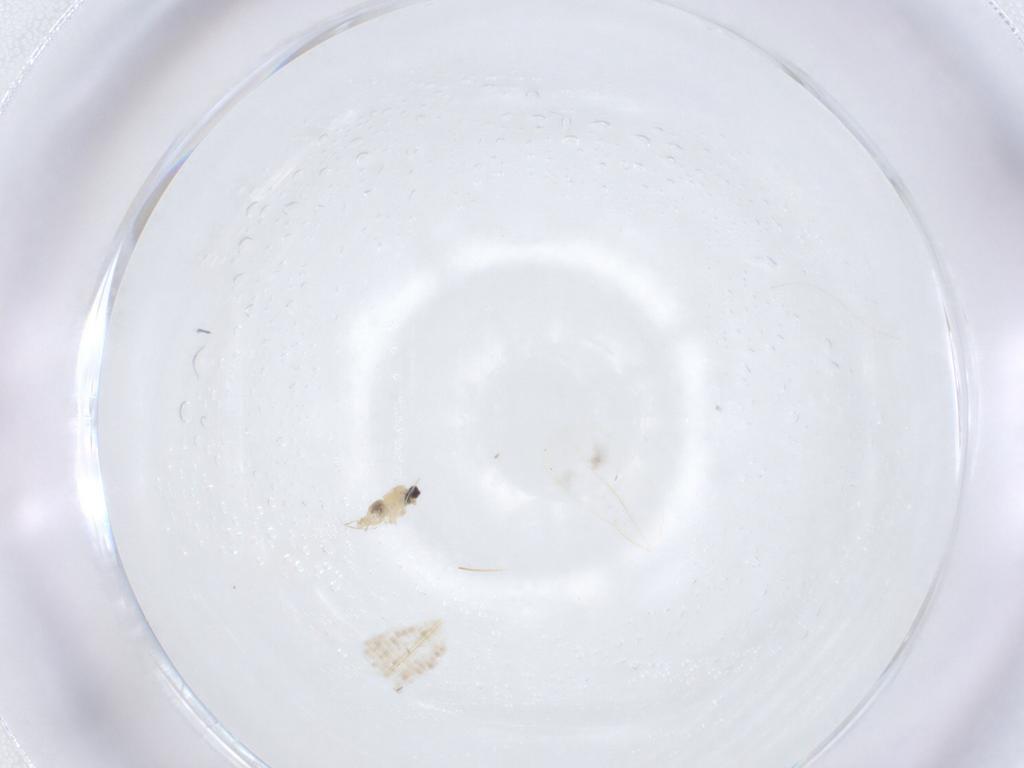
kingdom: Animalia
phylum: Arthropoda
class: Insecta
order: Diptera
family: Cecidomyiidae
